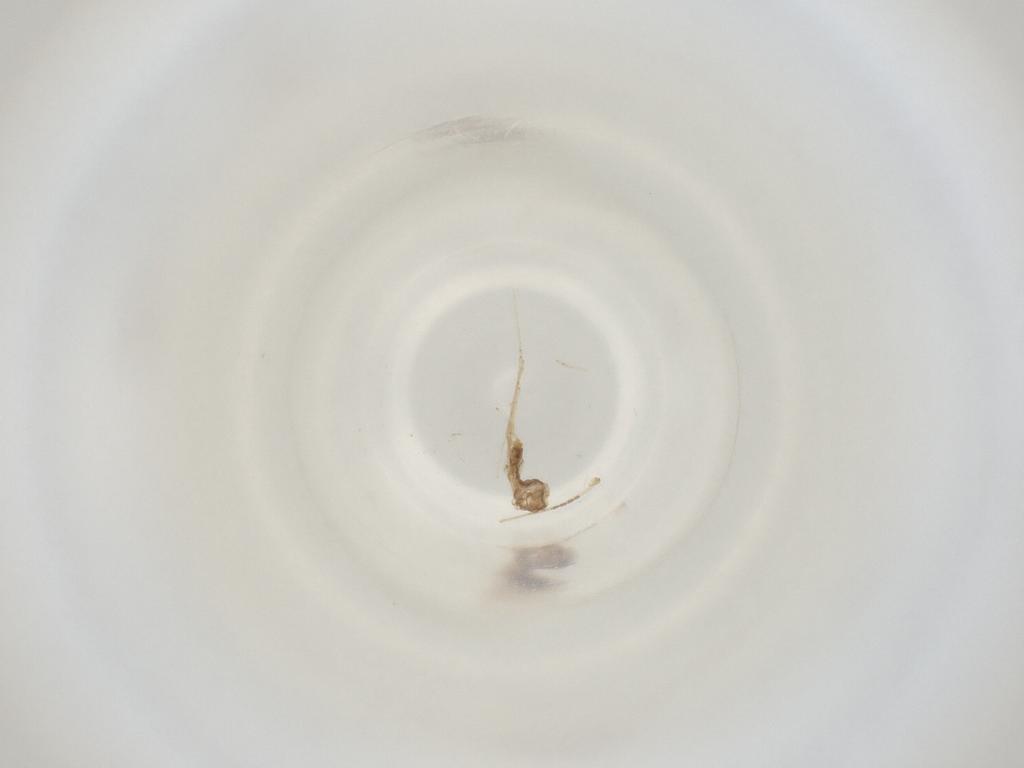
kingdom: Animalia
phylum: Arthropoda
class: Insecta
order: Diptera
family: Cecidomyiidae
